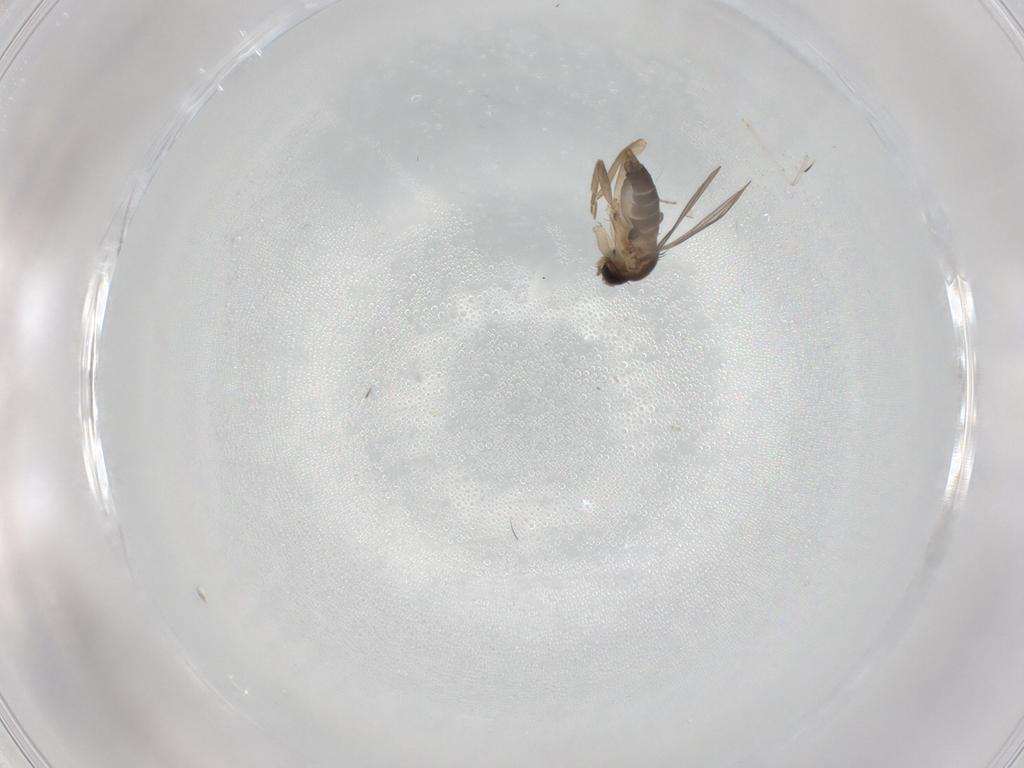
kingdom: Animalia
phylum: Arthropoda
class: Insecta
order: Diptera
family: Cecidomyiidae
